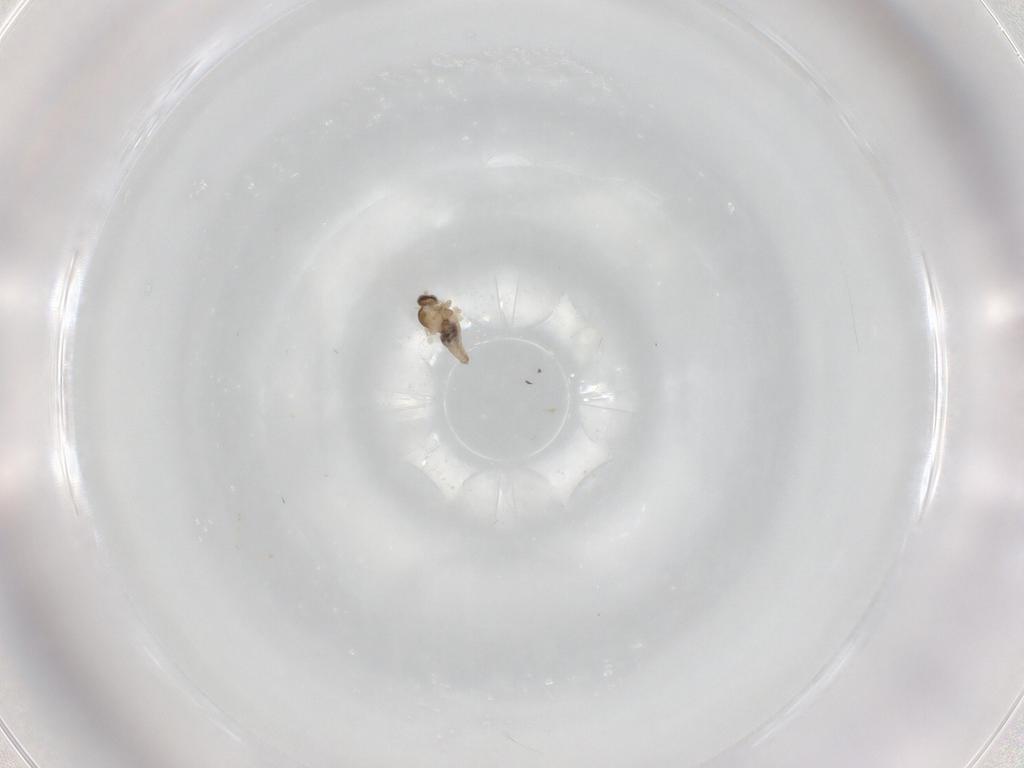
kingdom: Animalia
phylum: Arthropoda
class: Insecta
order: Diptera
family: Cecidomyiidae
